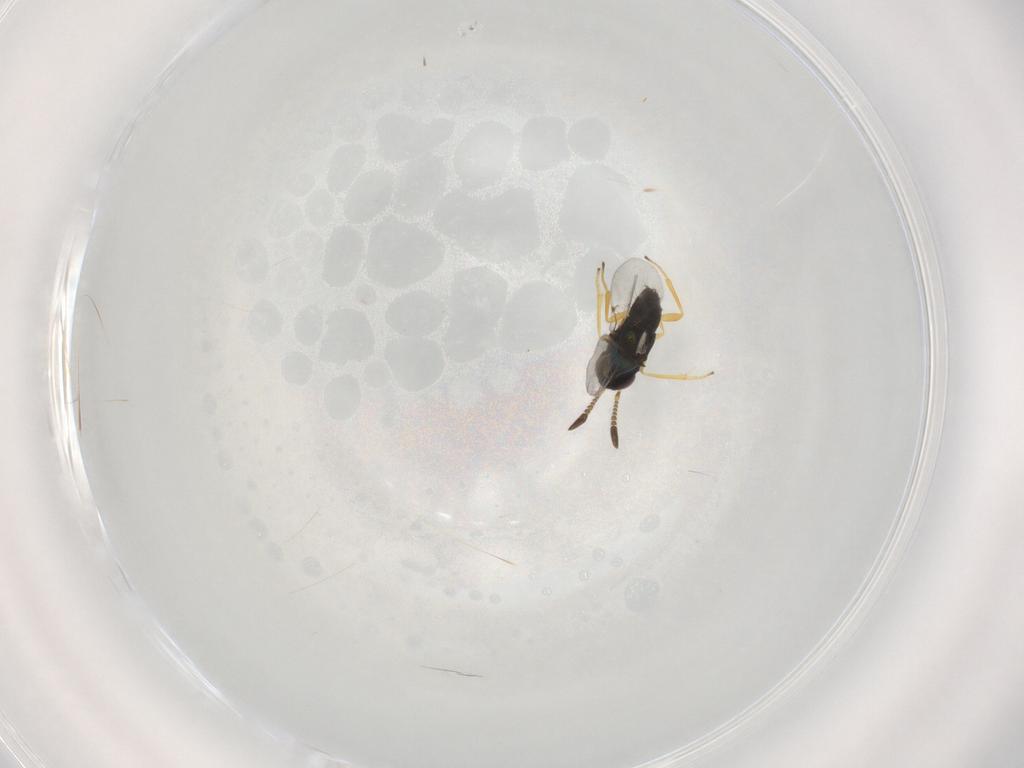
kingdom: Animalia
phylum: Arthropoda
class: Insecta
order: Hymenoptera
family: Encyrtidae
